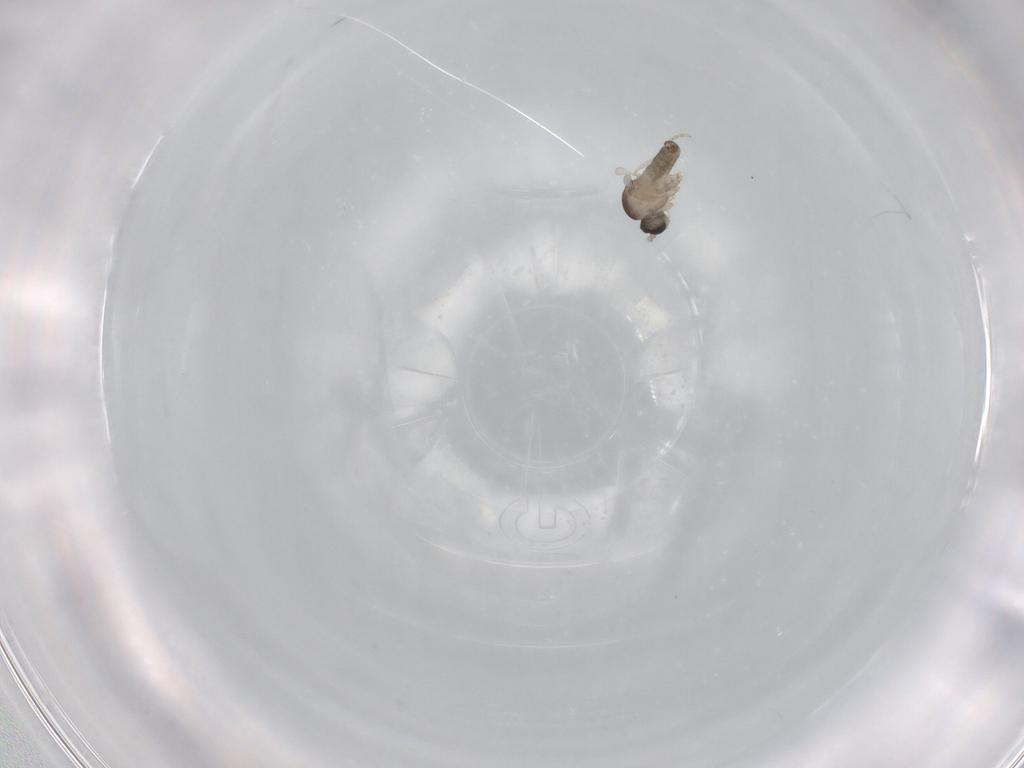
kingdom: Animalia
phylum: Arthropoda
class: Insecta
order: Diptera
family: Cecidomyiidae
